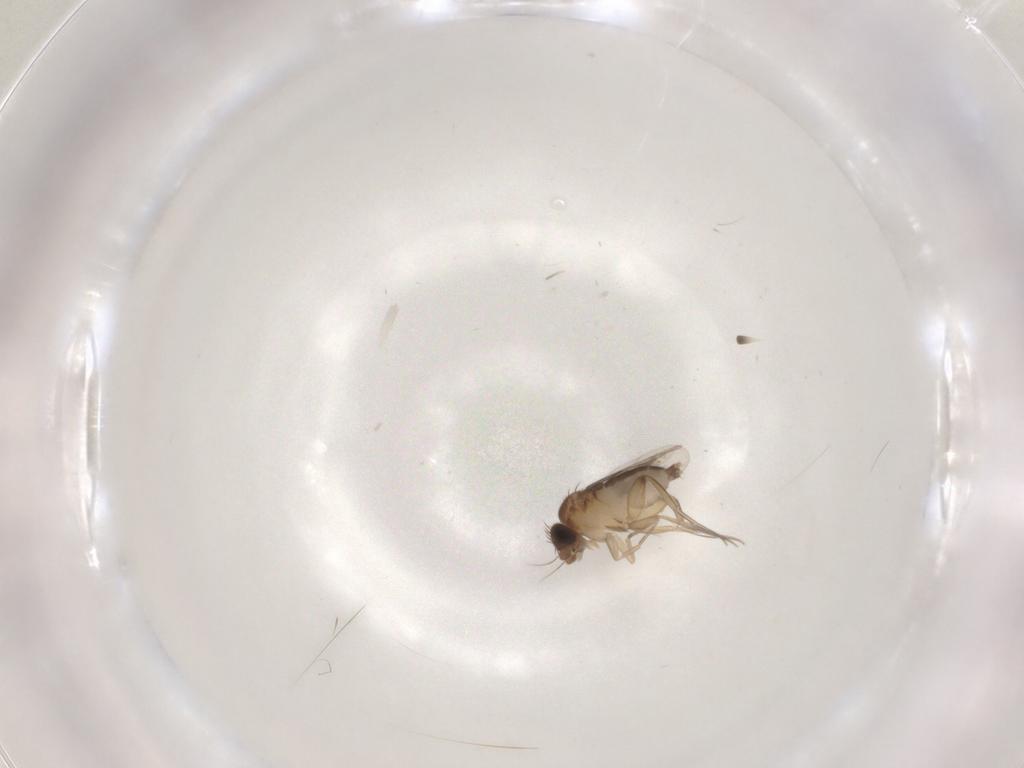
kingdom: Animalia
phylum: Arthropoda
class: Insecta
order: Diptera
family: Phoridae
